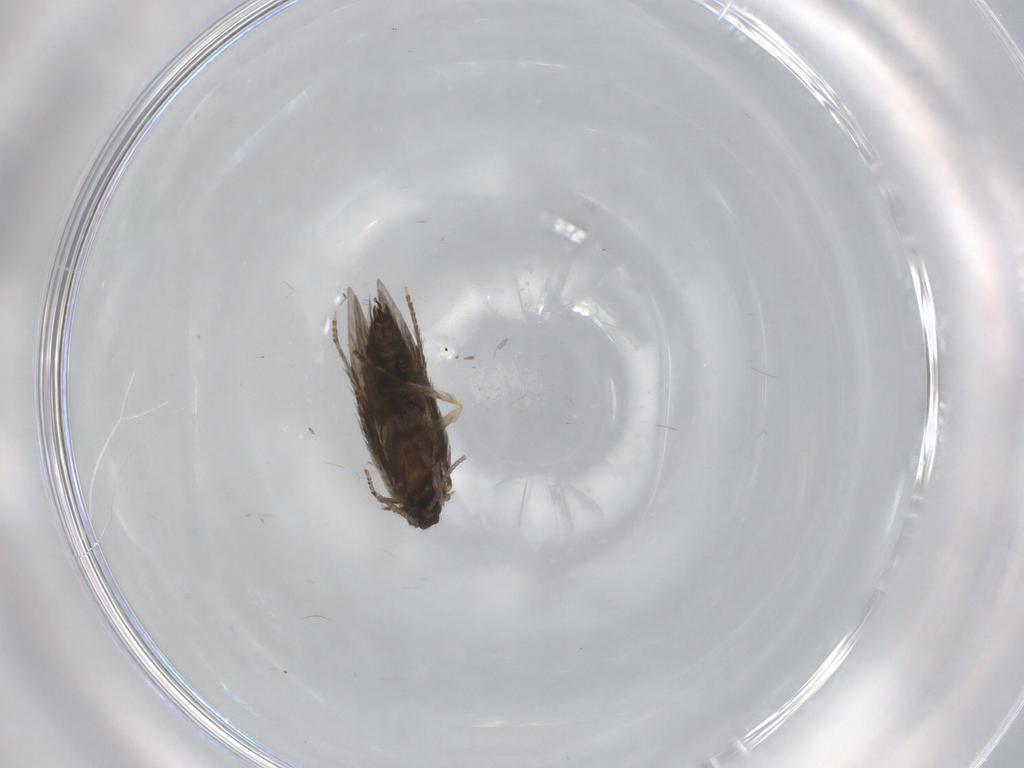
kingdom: Animalia
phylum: Arthropoda
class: Insecta
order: Trichoptera
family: Hydroptilidae
